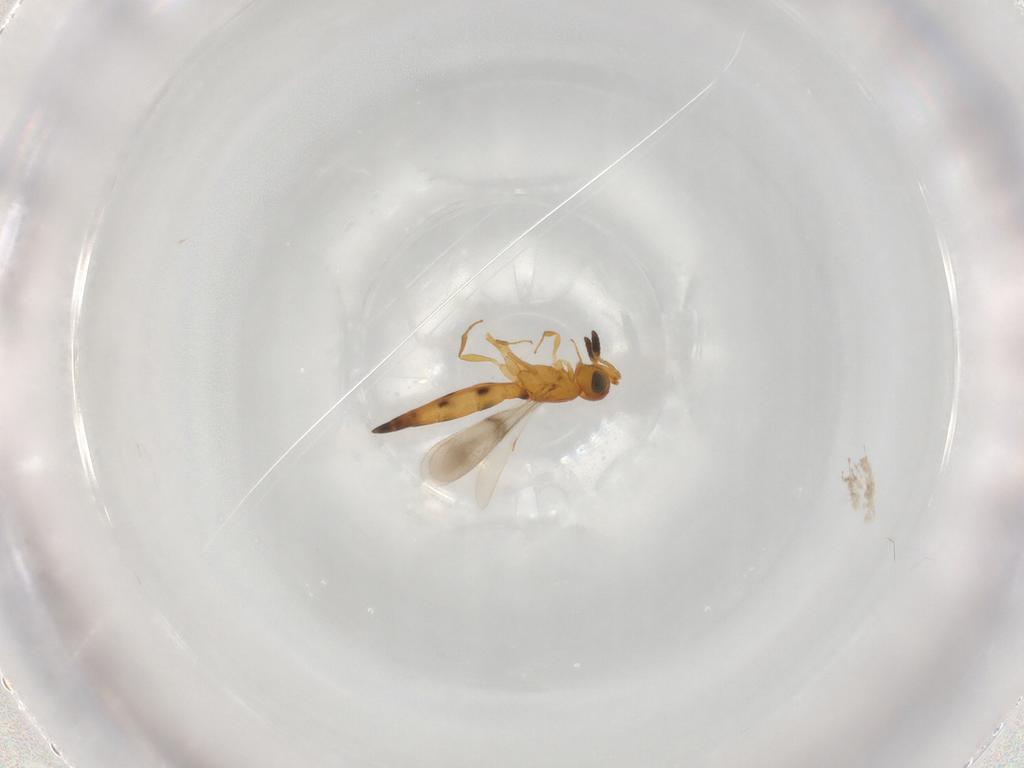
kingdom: Animalia
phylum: Arthropoda
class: Insecta
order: Hymenoptera
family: Scelionidae
